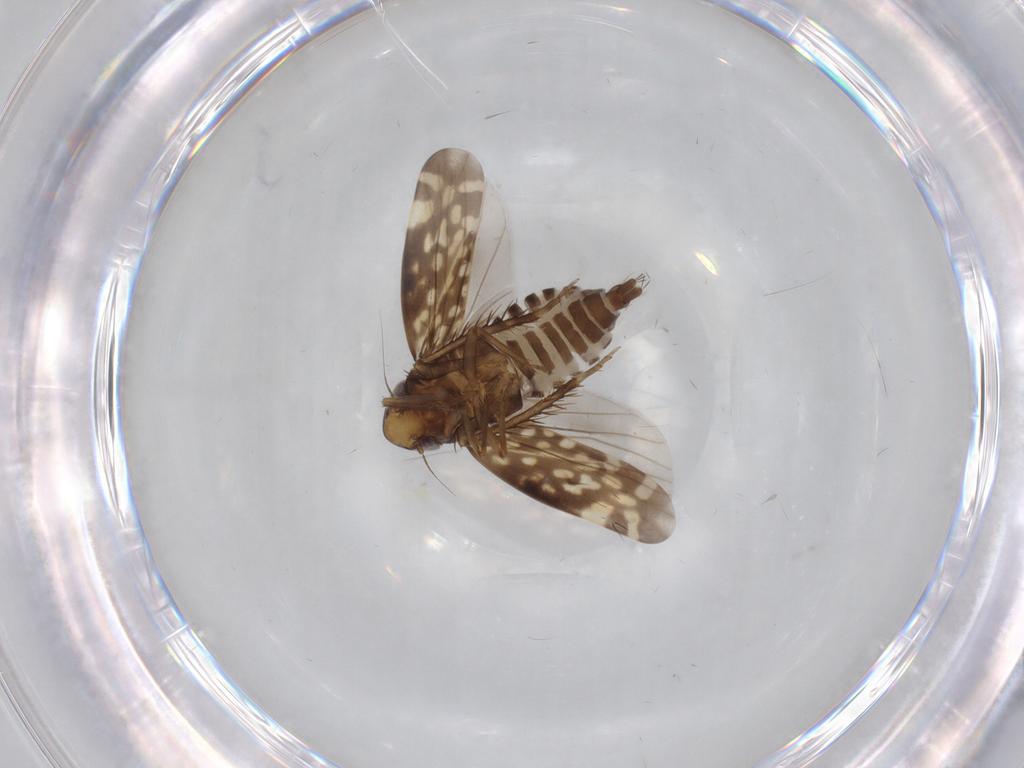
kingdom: Animalia
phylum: Arthropoda
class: Insecta
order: Hemiptera
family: Cicadellidae
